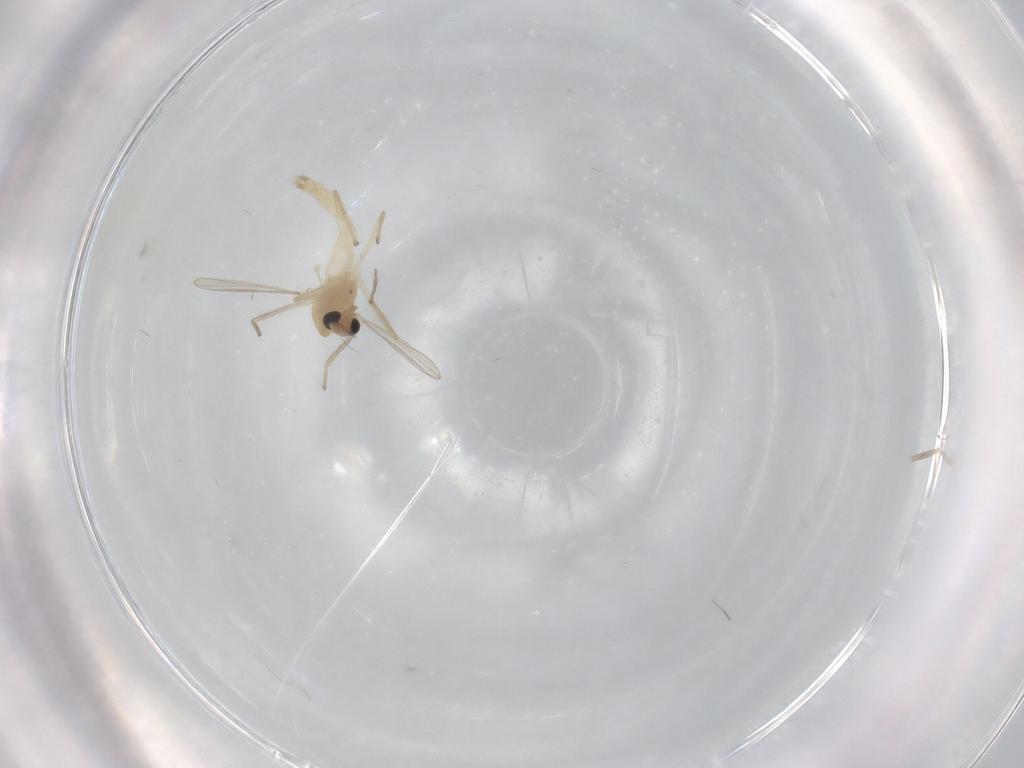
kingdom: Animalia
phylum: Arthropoda
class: Insecta
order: Diptera
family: Chironomidae
